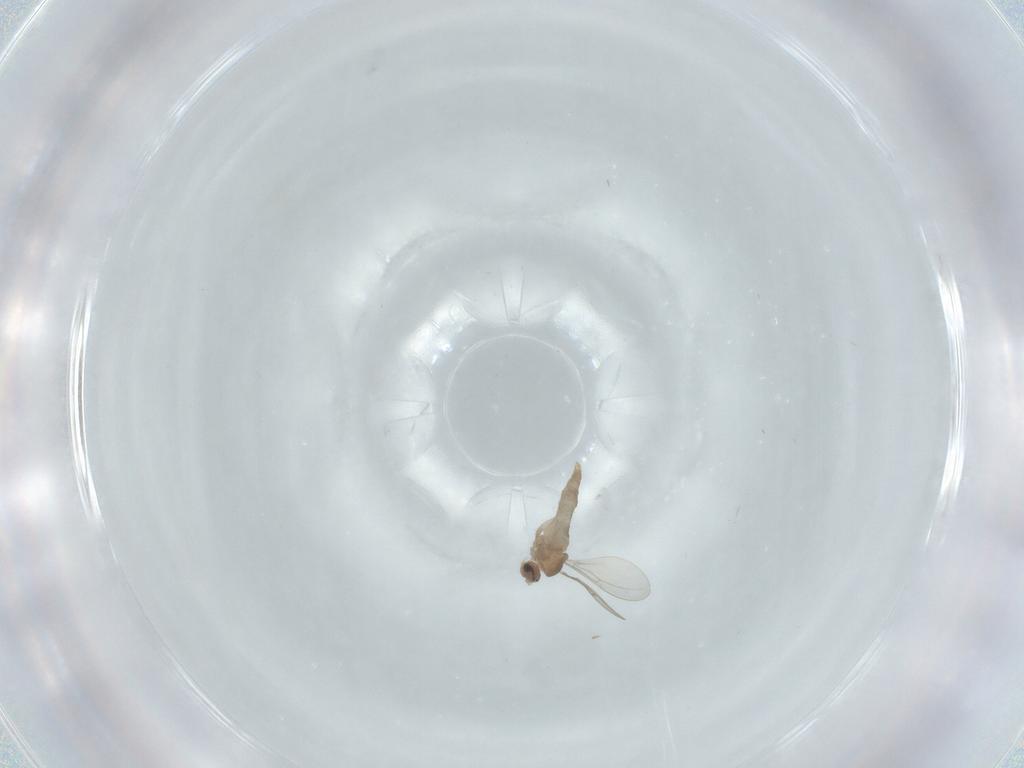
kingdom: Animalia
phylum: Arthropoda
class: Insecta
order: Diptera
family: Cecidomyiidae
